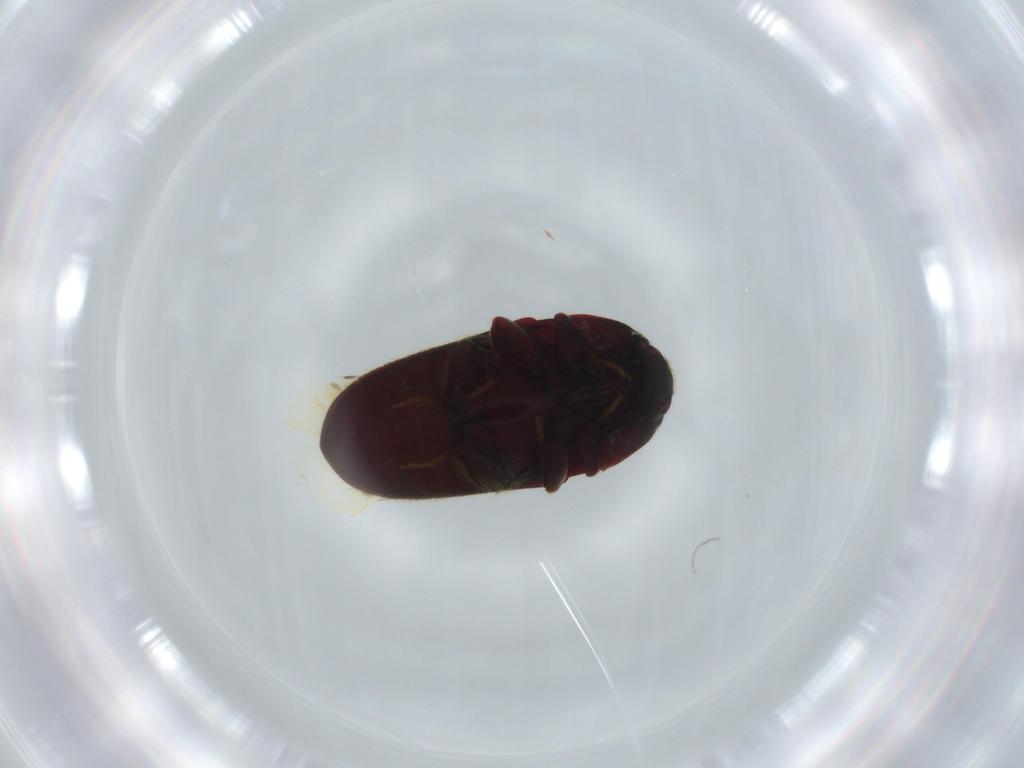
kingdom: Animalia
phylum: Arthropoda
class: Insecta
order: Coleoptera
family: Throscidae
